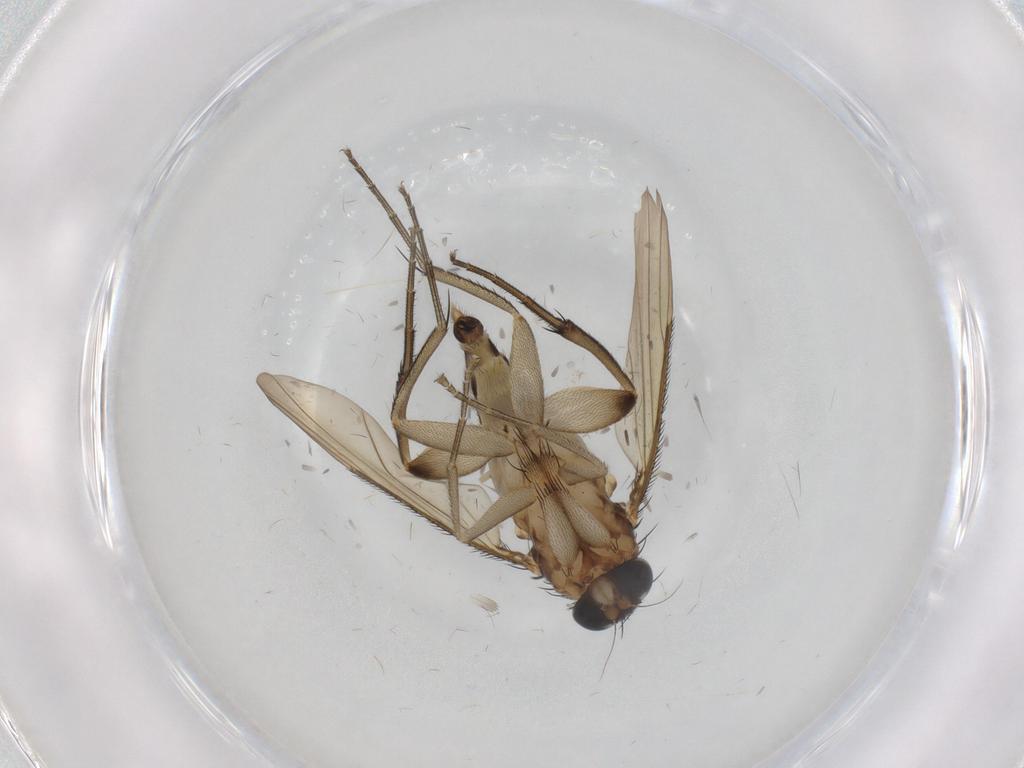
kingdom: Animalia
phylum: Arthropoda
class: Insecta
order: Diptera
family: Phoridae
